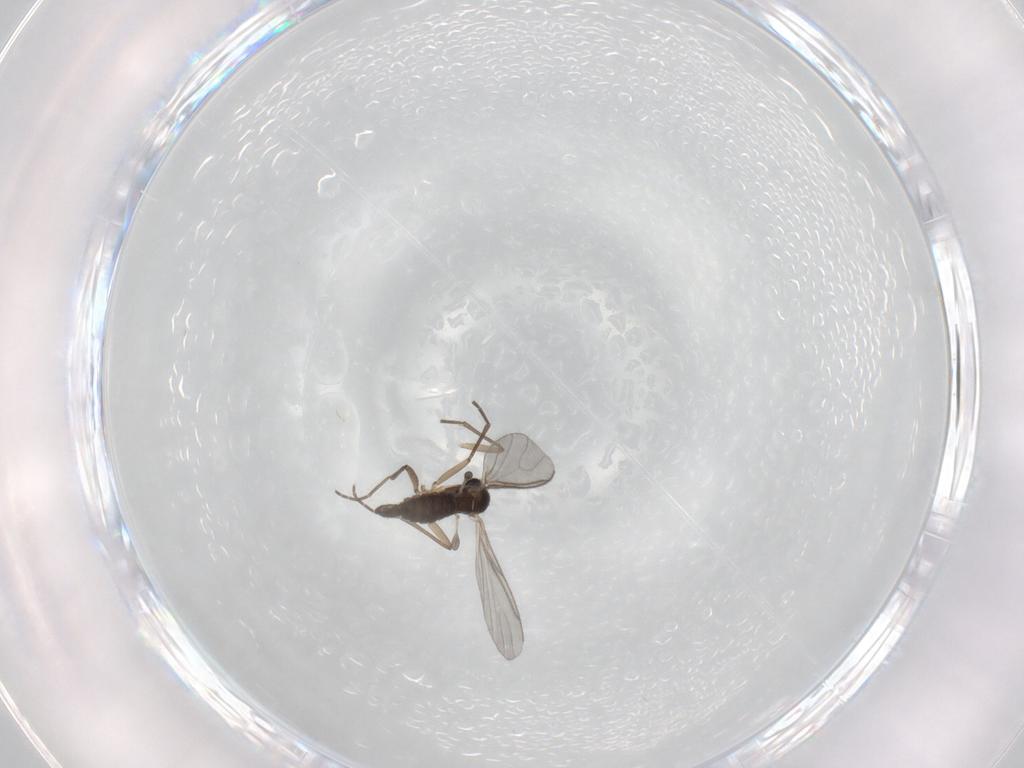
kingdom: Animalia
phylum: Arthropoda
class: Insecta
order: Diptera
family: Sciaridae
